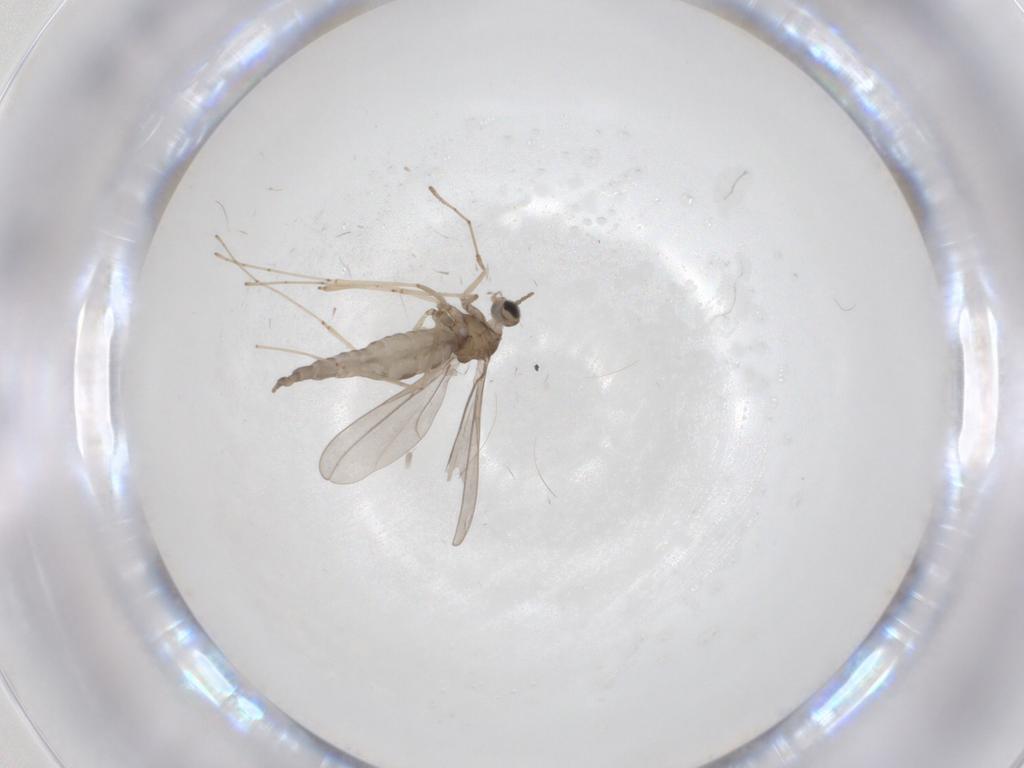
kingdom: Animalia
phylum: Arthropoda
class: Insecta
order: Diptera
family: Cecidomyiidae
